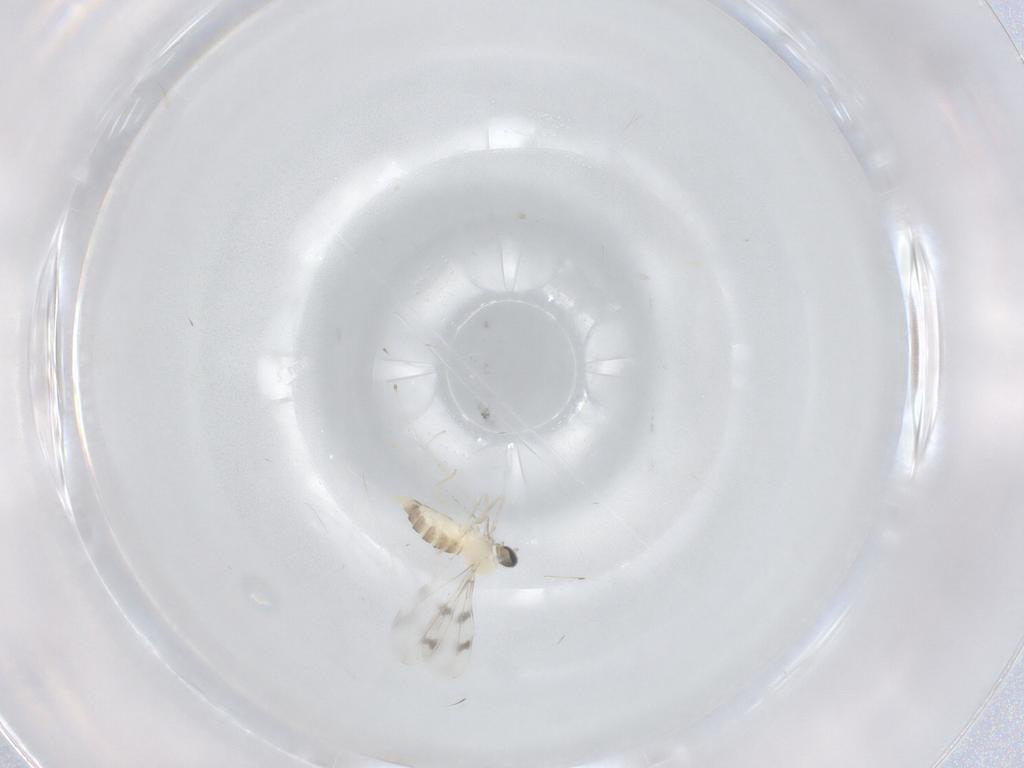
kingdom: Animalia
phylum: Arthropoda
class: Insecta
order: Diptera
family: Cecidomyiidae
